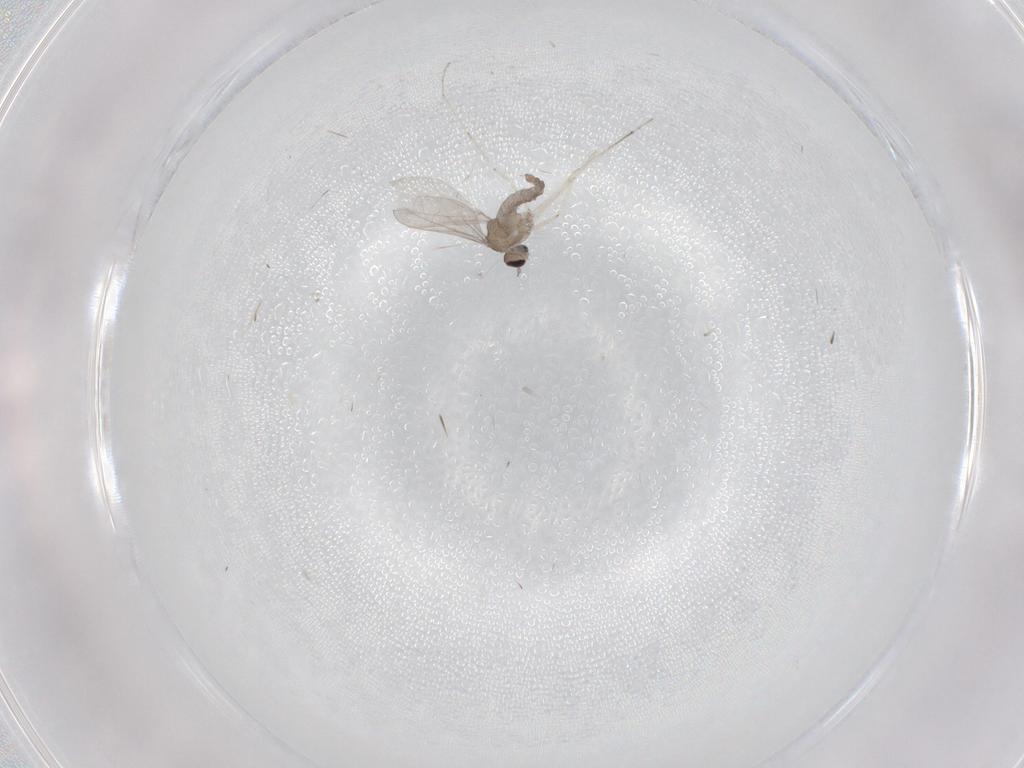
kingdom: Animalia
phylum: Arthropoda
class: Insecta
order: Diptera
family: Cecidomyiidae
